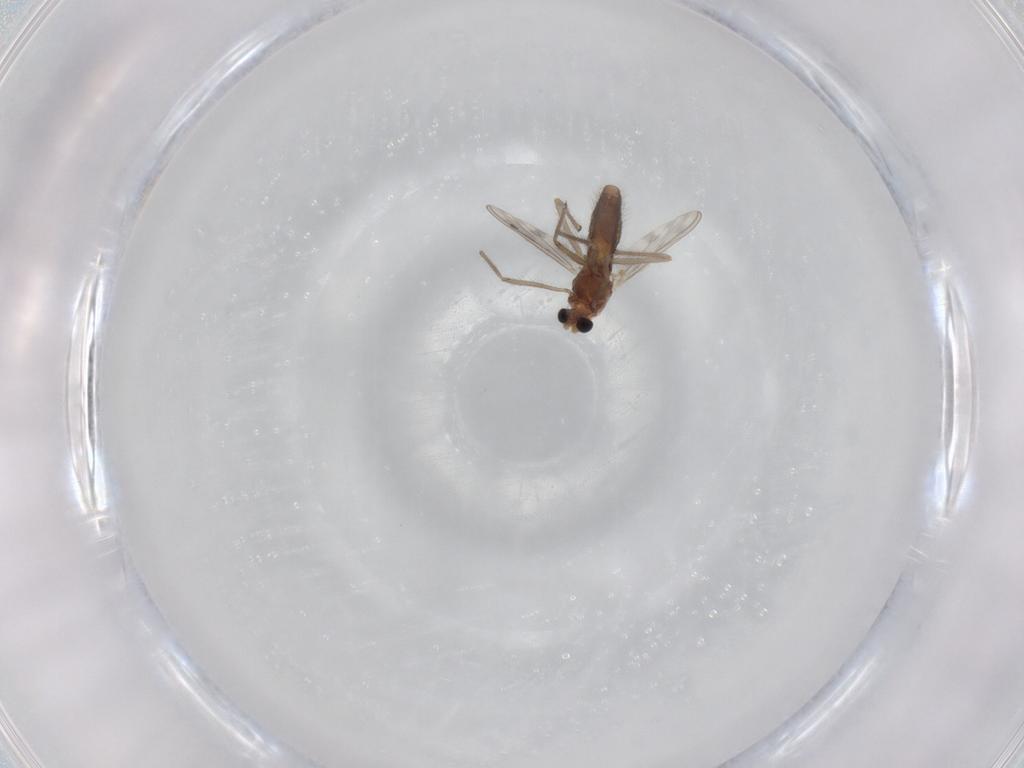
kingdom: Animalia
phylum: Arthropoda
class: Insecta
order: Diptera
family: Chironomidae
